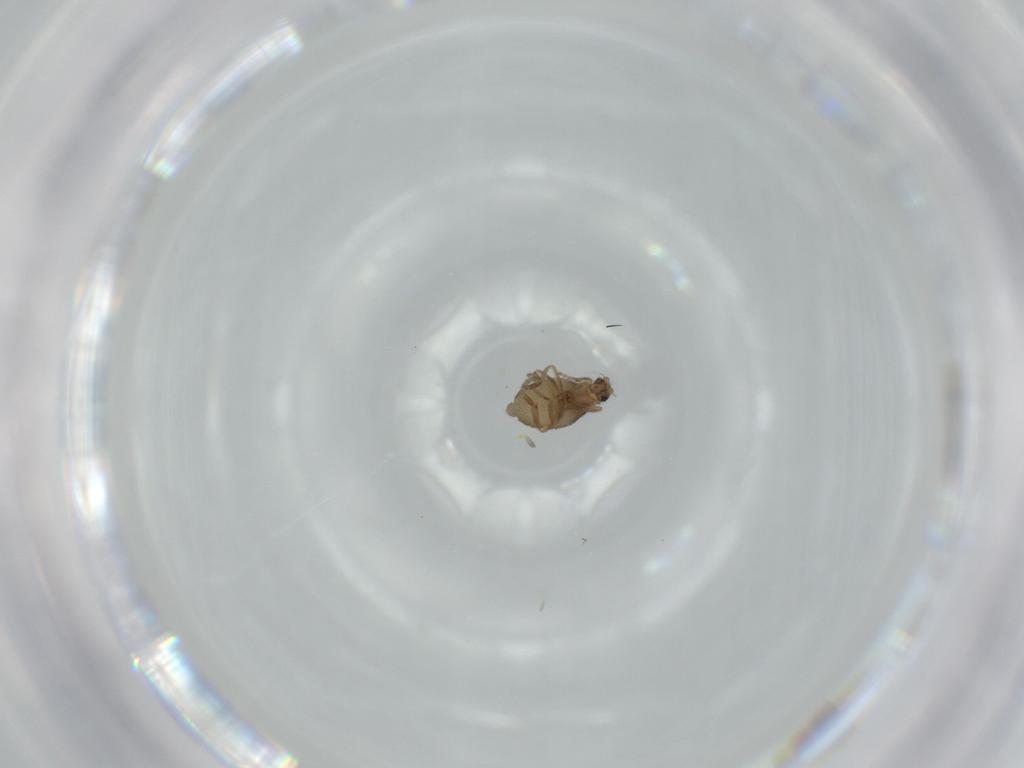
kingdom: Animalia
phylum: Arthropoda
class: Insecta
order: Diptera
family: Phoridae
